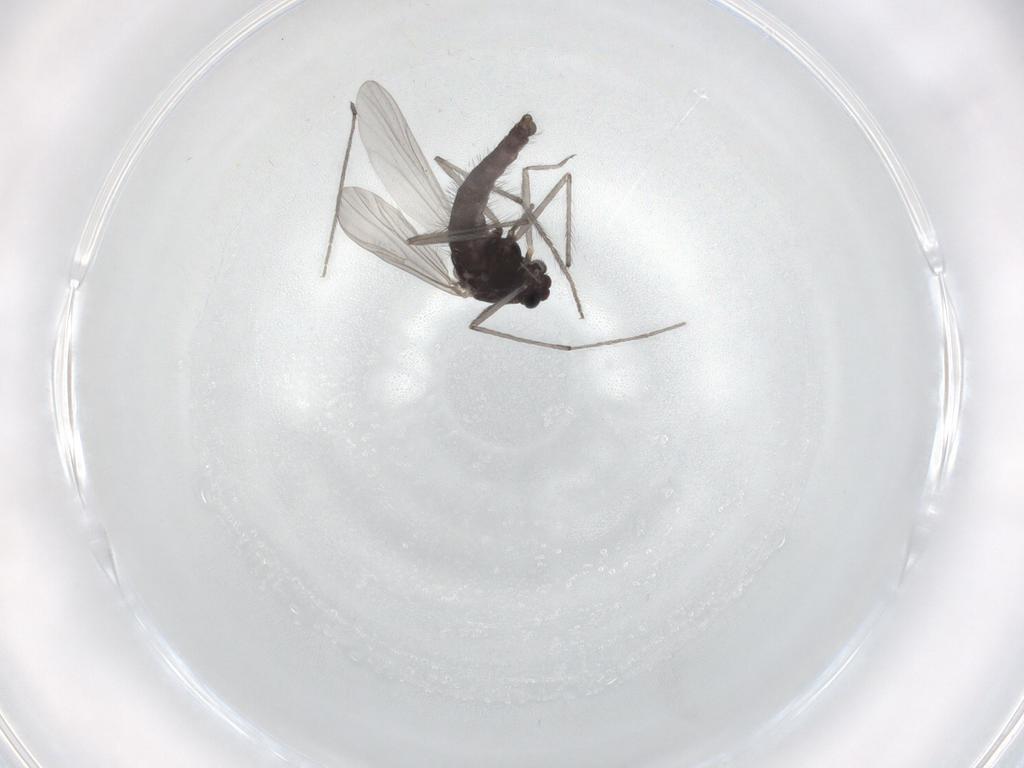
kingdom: Animalia
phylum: Arthropoda
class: Insecta
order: Diptera
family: Chironomidae
